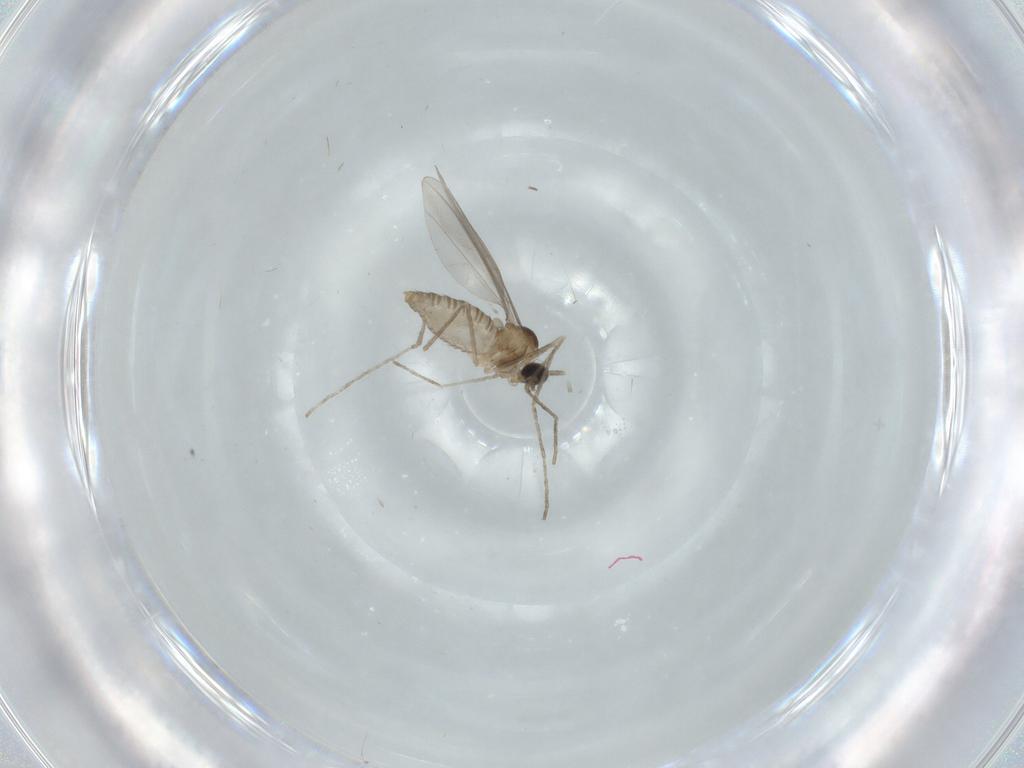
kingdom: Animalia
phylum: Arthropoda
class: Insecta
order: Diptera
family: Cecidomyiidae
